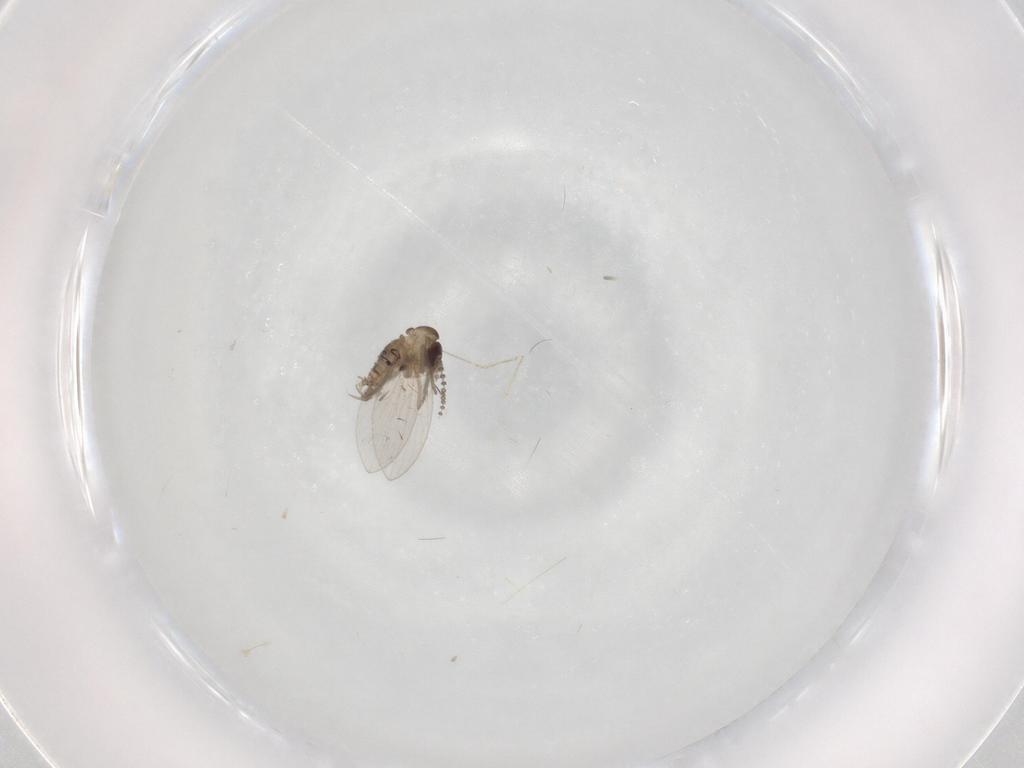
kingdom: Animalia
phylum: Arthropoda
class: Insecta
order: Diptera
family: Psychodidae
